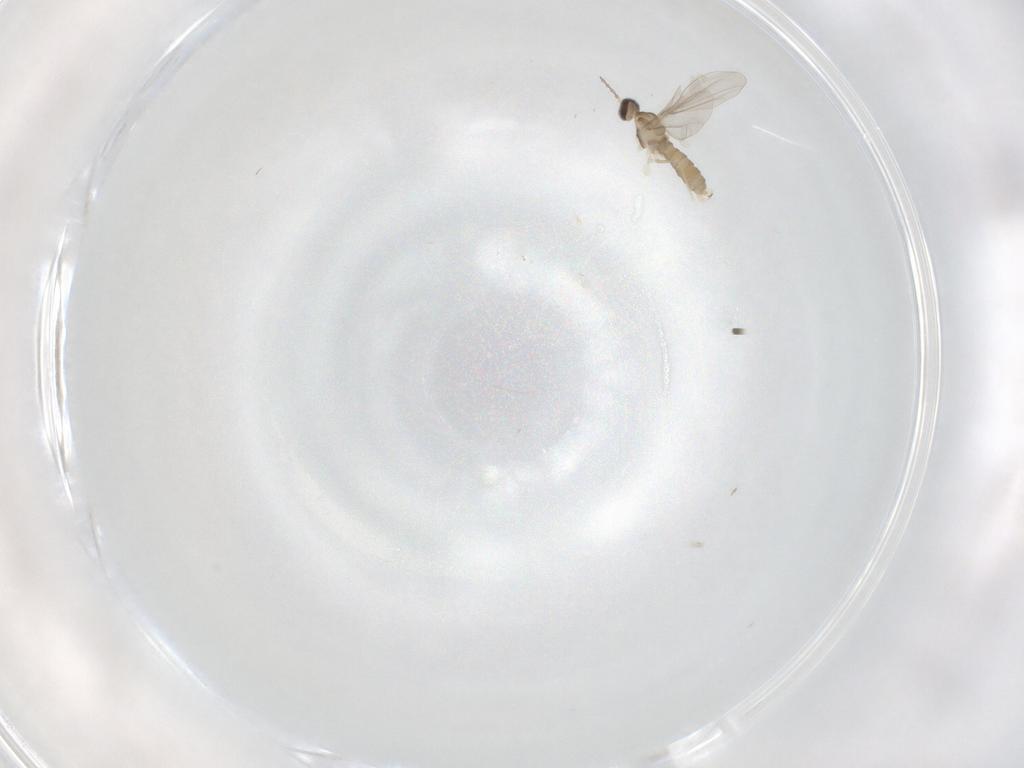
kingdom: Animalia
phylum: Arthropoda
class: Insecta
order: Diptera
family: Cecidomyiidae
